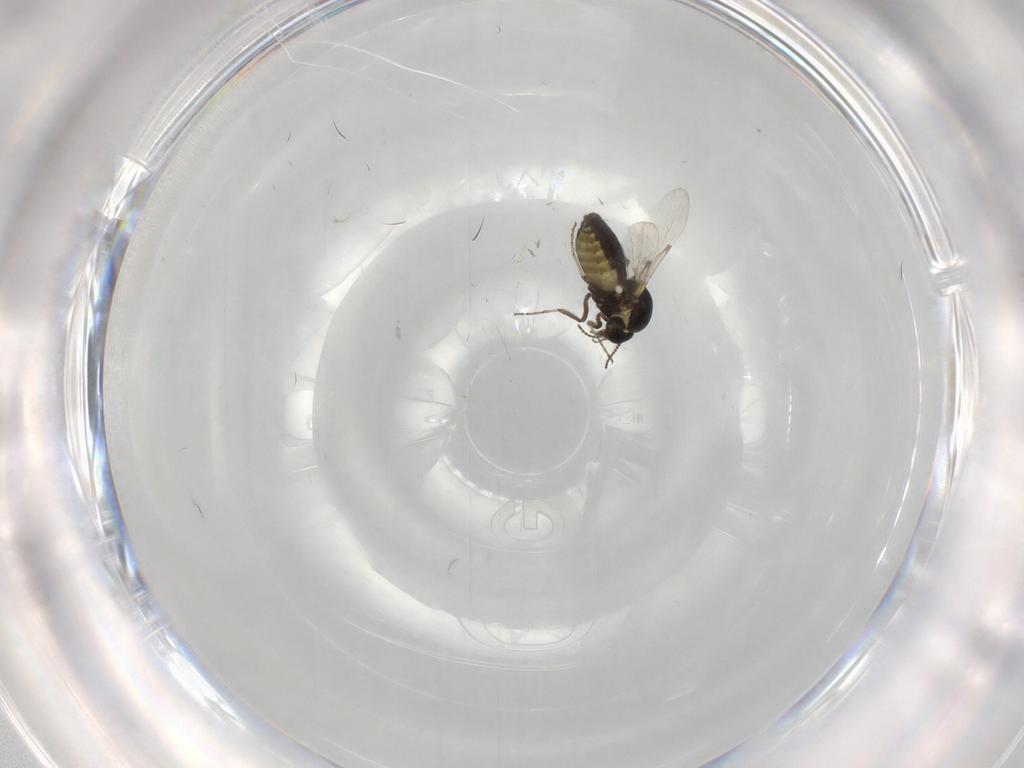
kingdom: Animalia
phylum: Arthropoda
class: Insecta
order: Diptera
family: Ceratopogonidae
